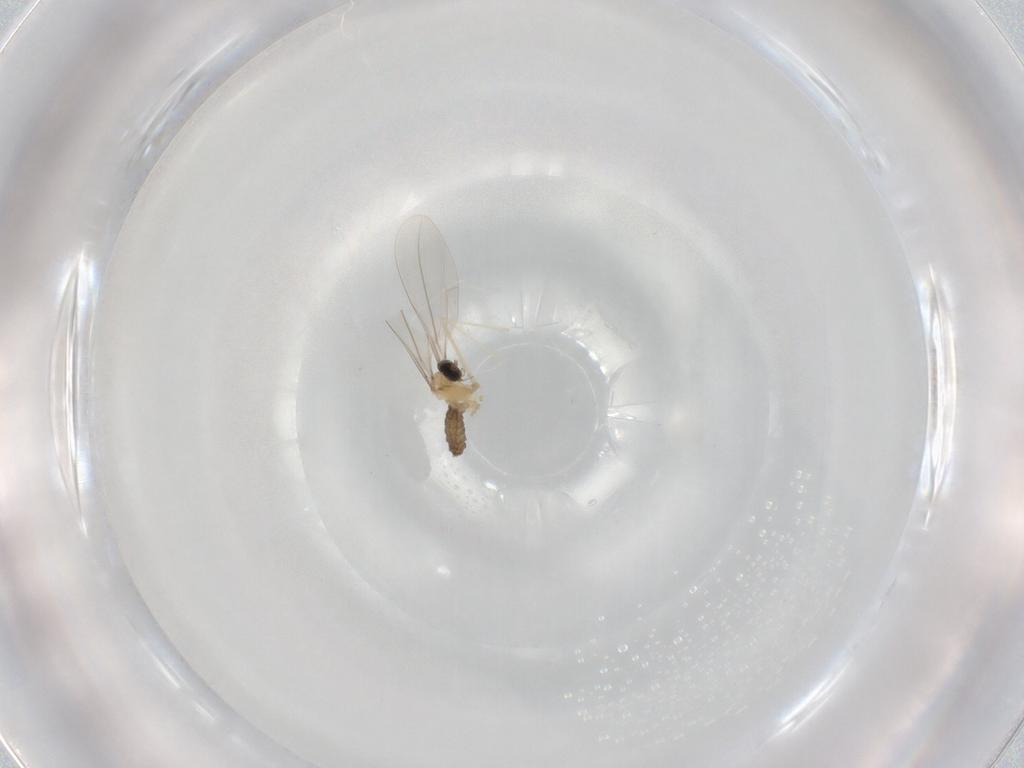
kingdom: Animalia
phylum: Arthropoda
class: Insecta
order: Diptera
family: Cecidomyiidae
